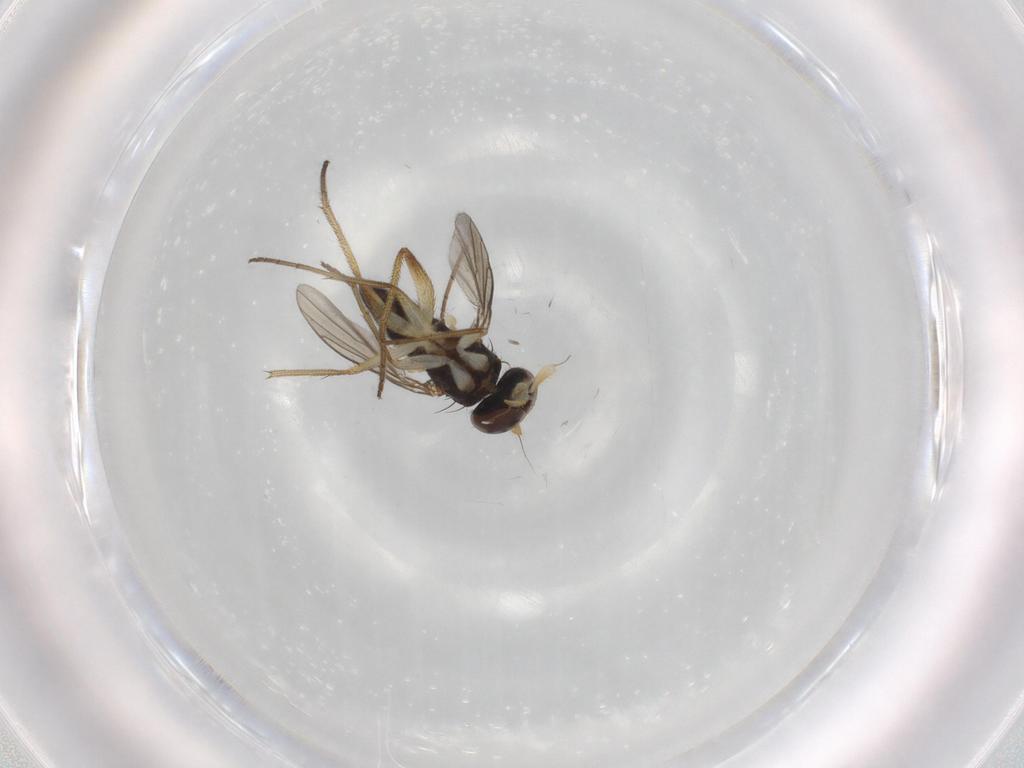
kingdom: Animalia
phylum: Arthropoda
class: Insecta
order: Diptera
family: Dolichopodidae
